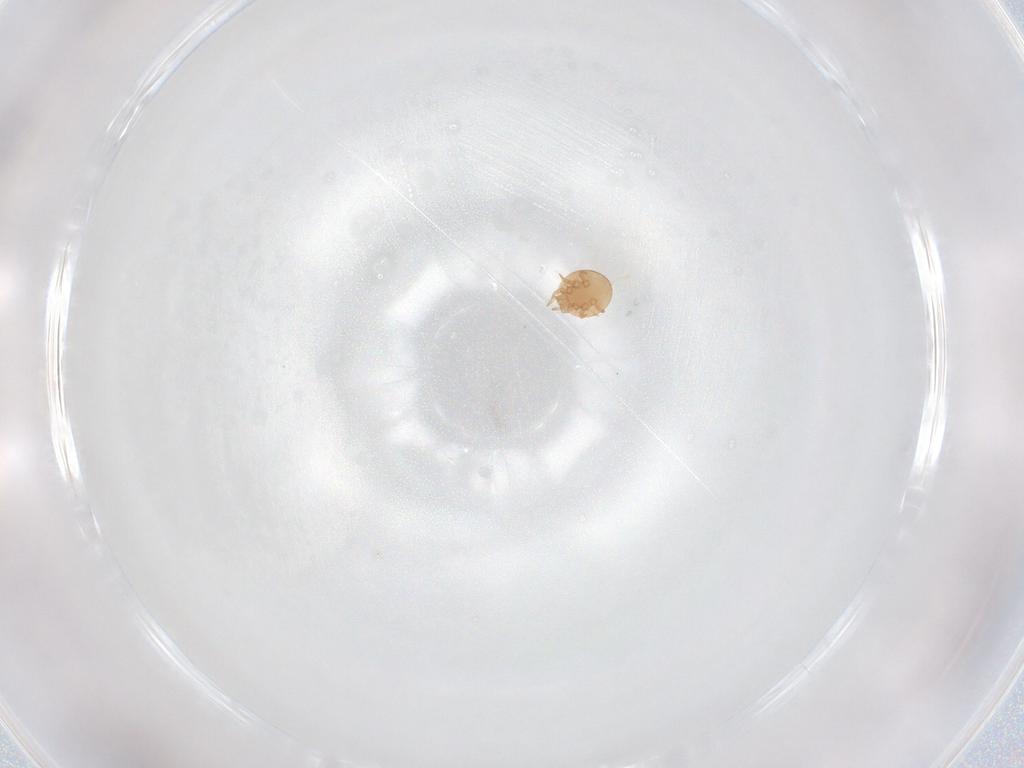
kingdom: Animalia
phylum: Arthropoda
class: Arachnida
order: Mesostigmata
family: Trematuridae
